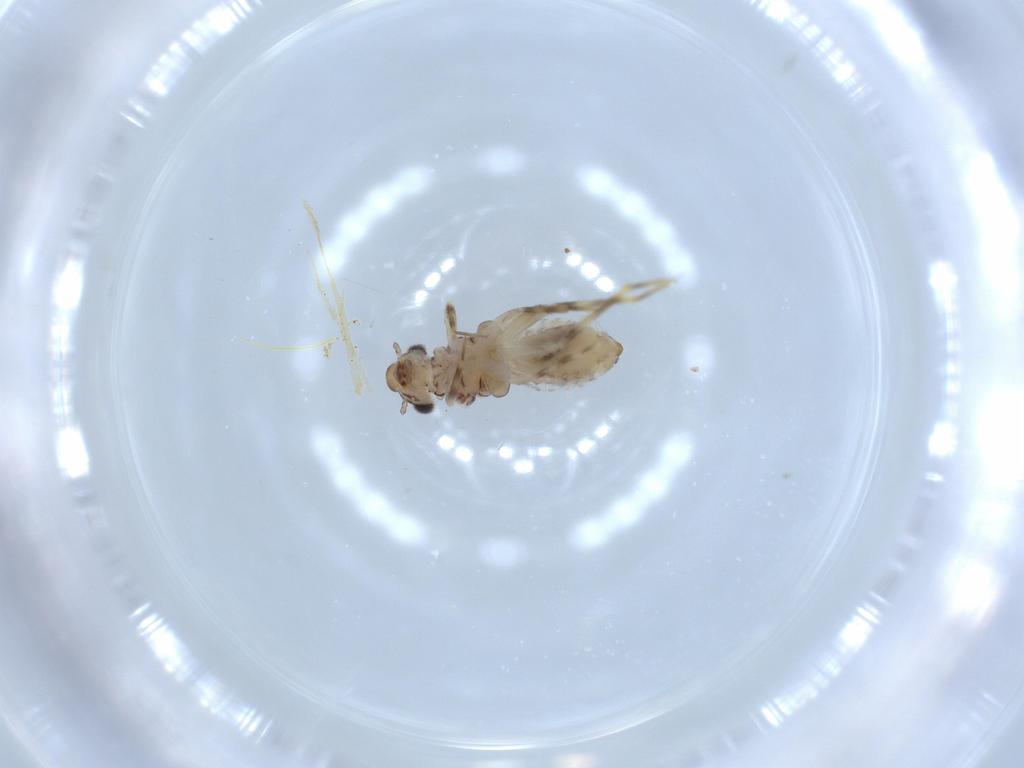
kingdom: Animalia
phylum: Arthropoda
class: Insecta
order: Psocodea
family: Lepidopsocidae
